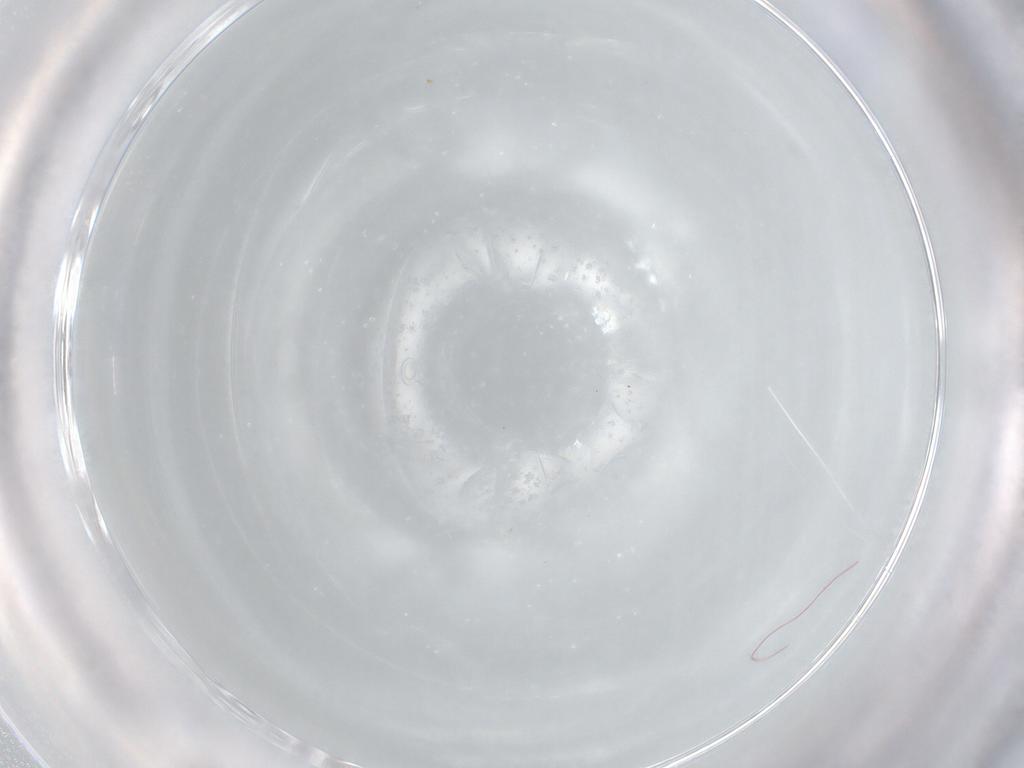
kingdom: Animalia
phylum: Arthropoda
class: Insecta
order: Diptera
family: Cecidomyiidae
